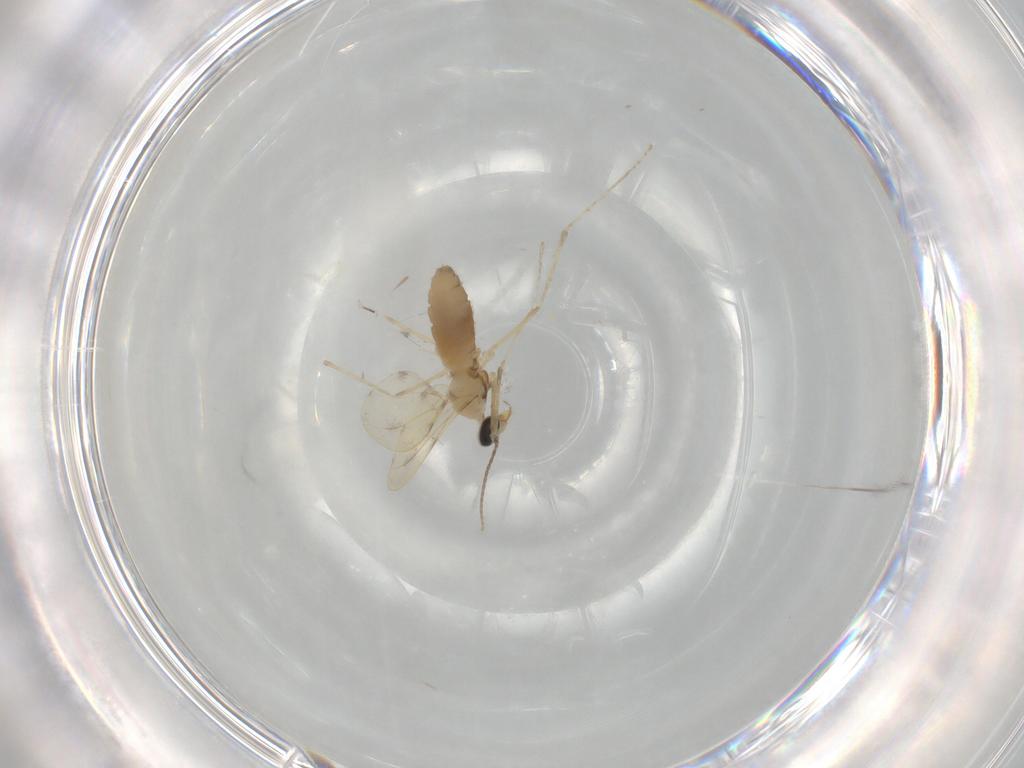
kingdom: Animalia
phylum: Arthropoda
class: Insecta
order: Diptera
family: Cecidomyiidae
